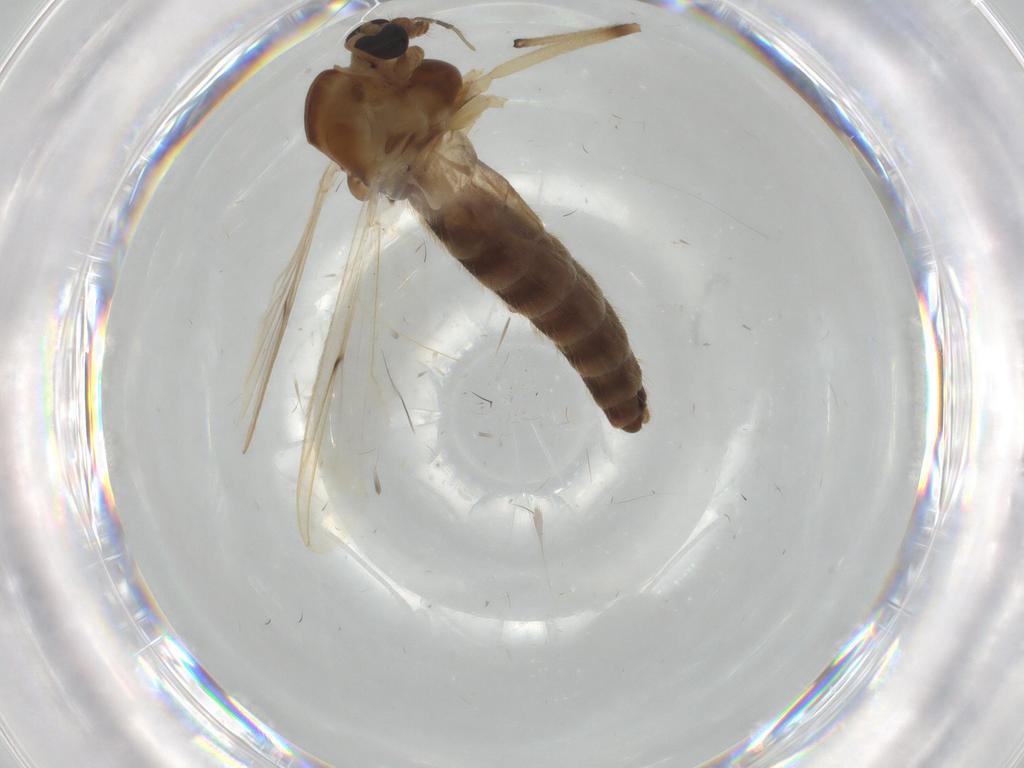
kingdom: Animalia
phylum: Arthropoda
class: Insecta
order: Diptera
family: Chironomidae
